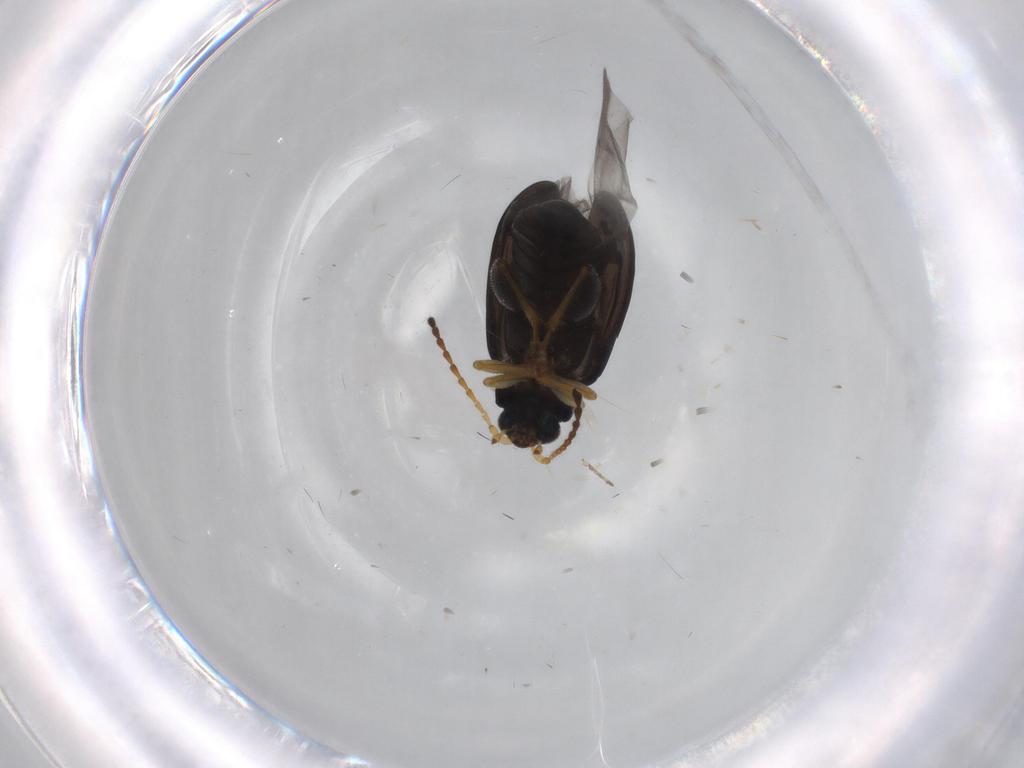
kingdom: Animalia
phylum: Arthropoda
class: Insecta
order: Coleoptera
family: Chrysomelidae
